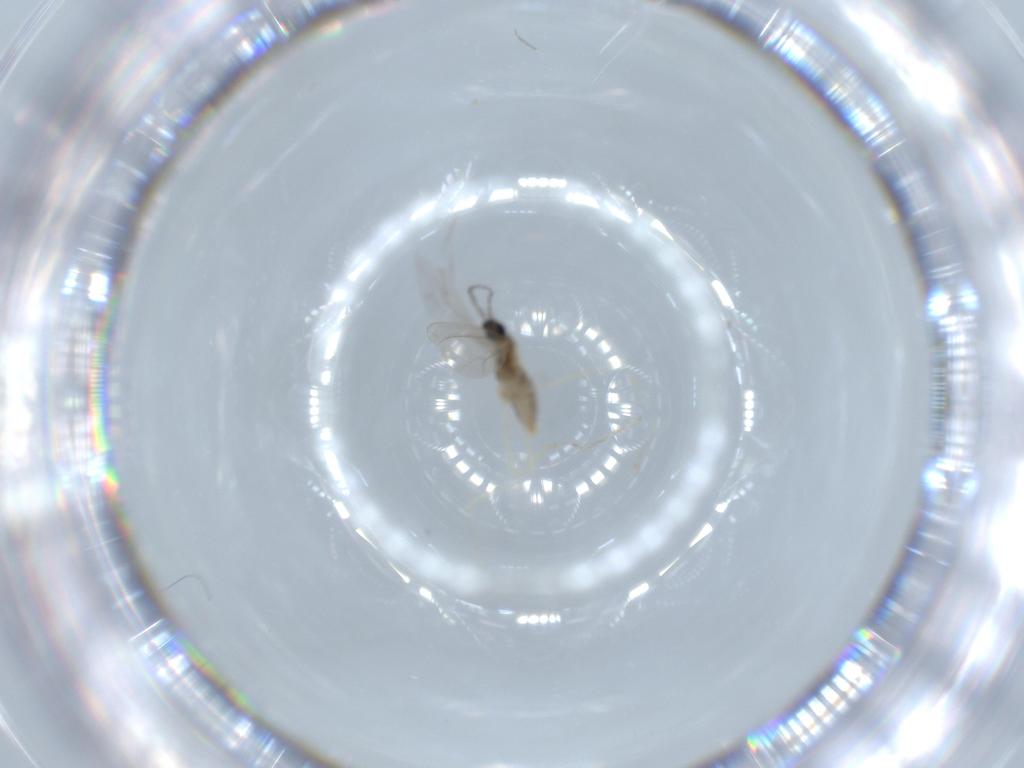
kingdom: Animalia
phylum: Arthropoda
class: Insecta
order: Diptera
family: Cecidomyiidae
